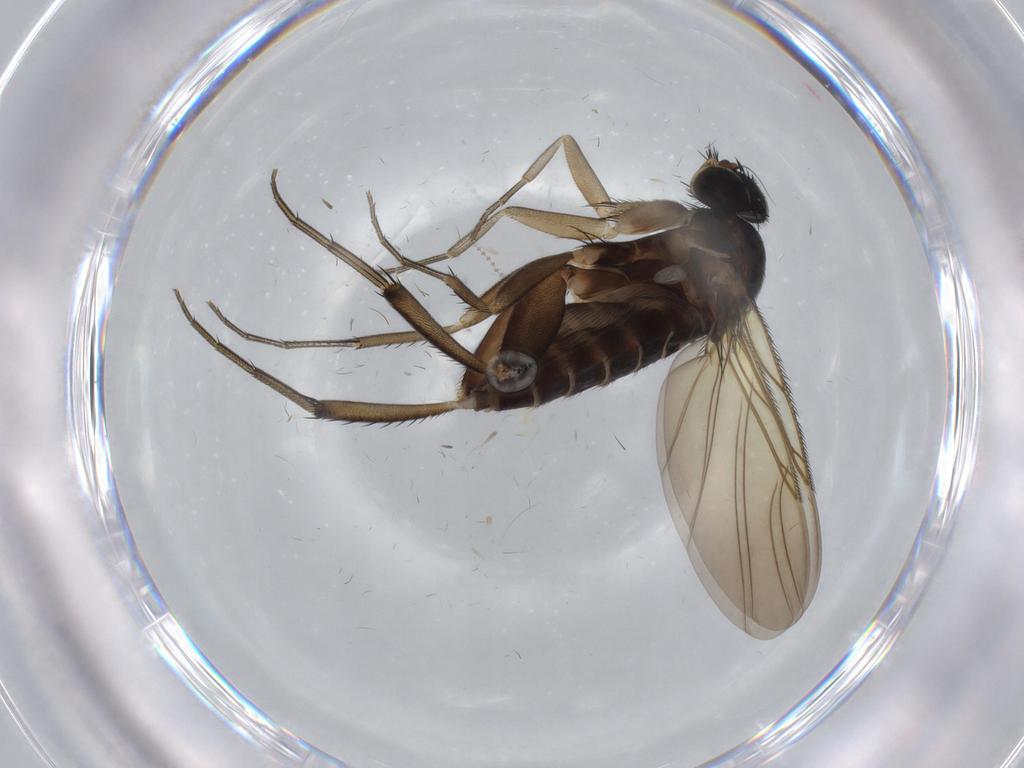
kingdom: Animalia
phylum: Arthropoda
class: Insecta
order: Diptera
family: Phoridae
